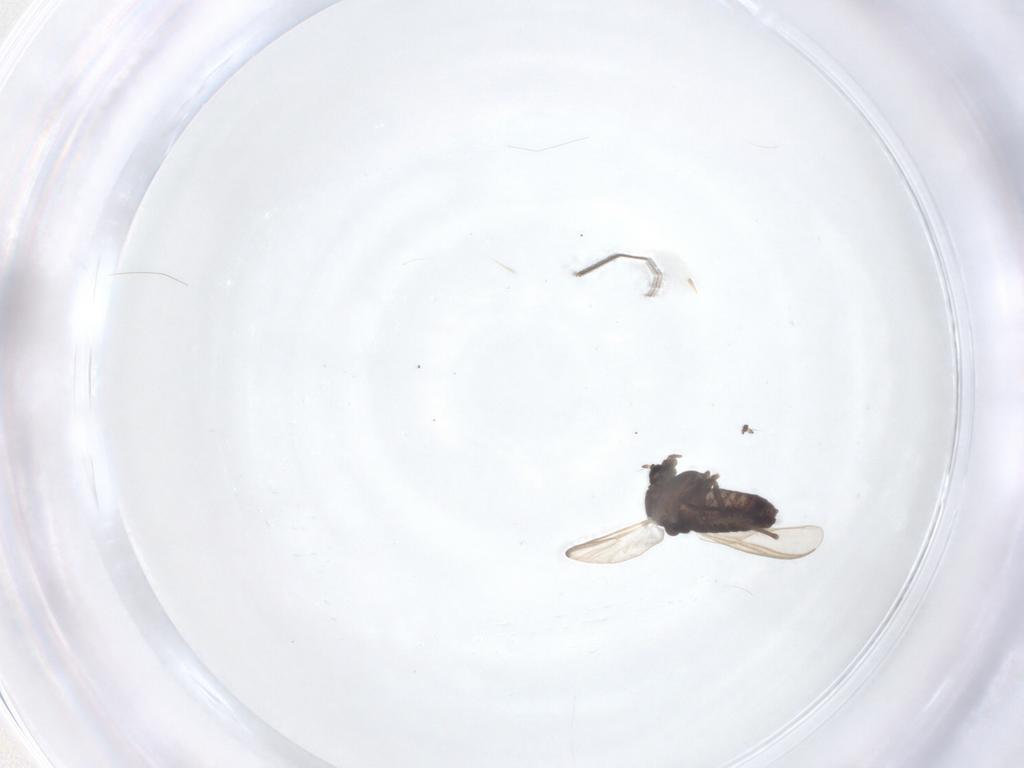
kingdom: Animalia
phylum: Arthropoda
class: Insecta
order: Diptera
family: Chironomidae
